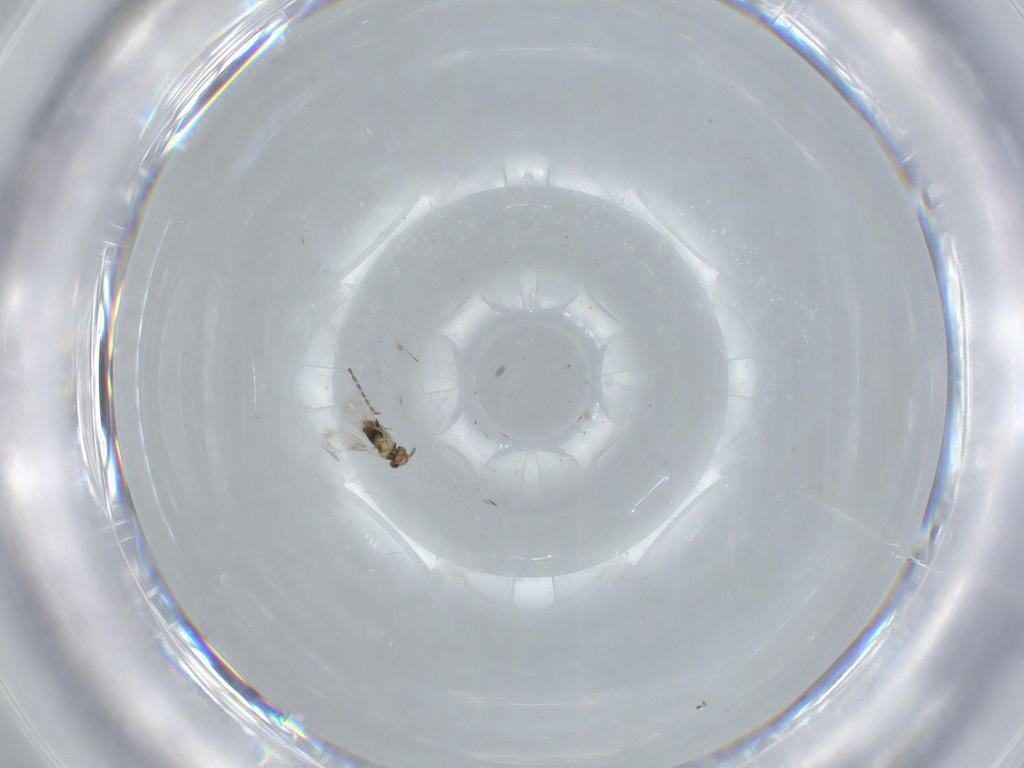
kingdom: Animalia
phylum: Arthropoda
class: Insecta
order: Hymenoptera
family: Aphelinidae
